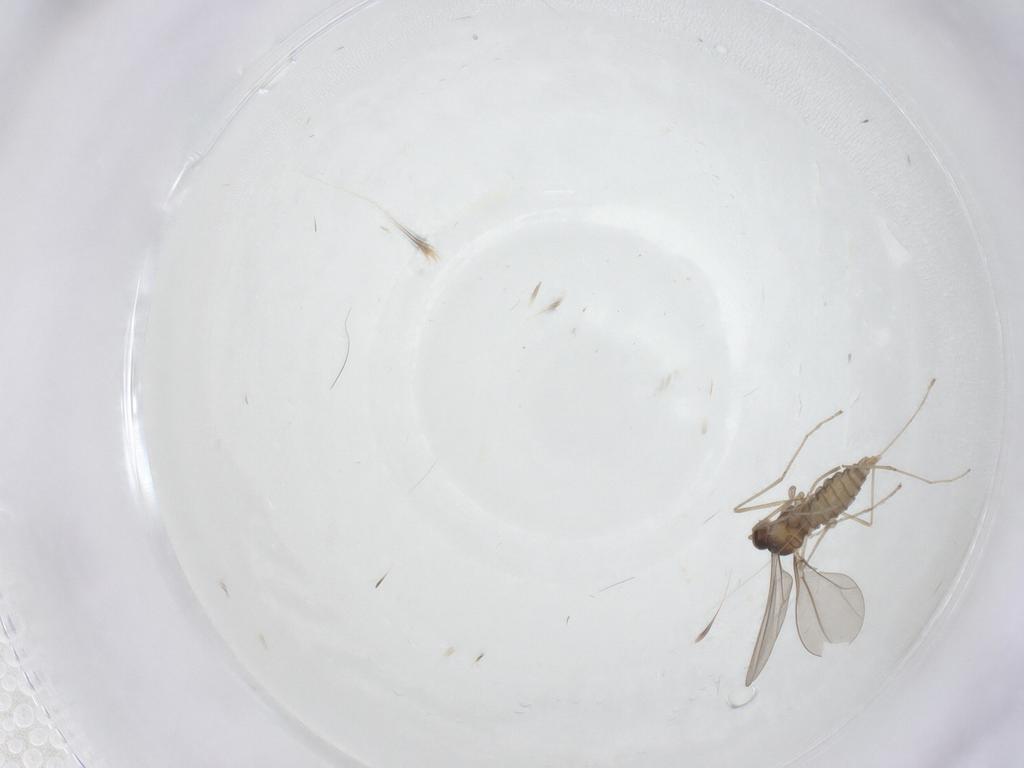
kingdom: Animalia
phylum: Arthropoda
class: Insecta
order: Diptera
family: Cecidomyiidae
